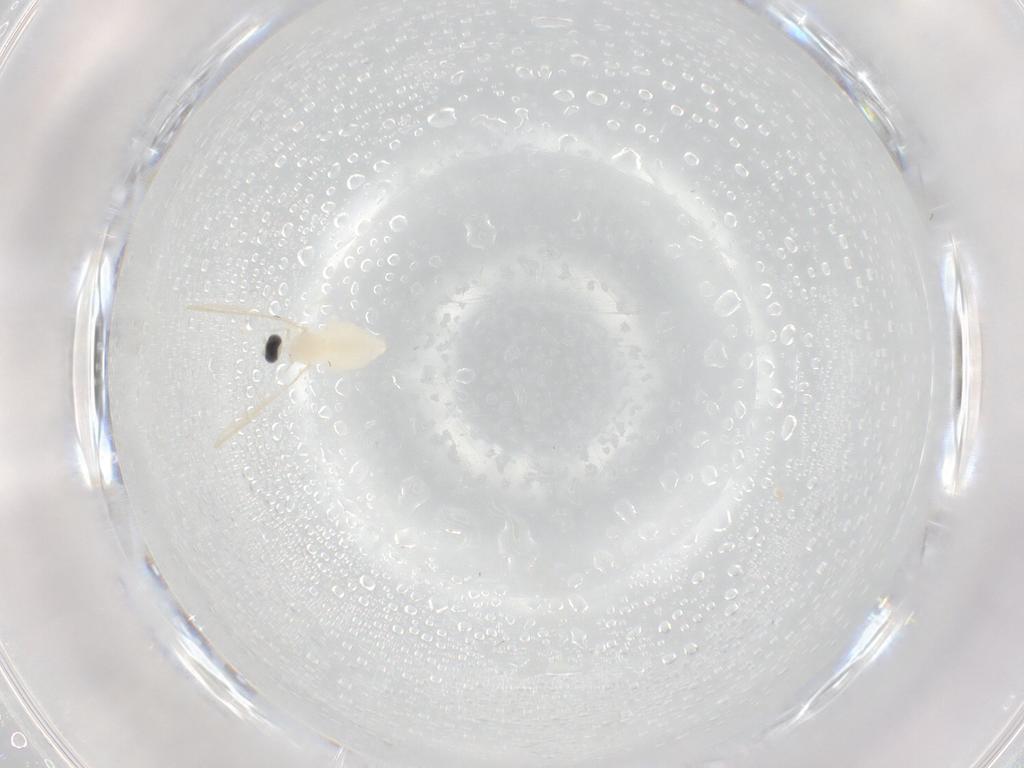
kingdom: Animalia
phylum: Arthropoda
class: Insecta
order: Diptera
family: Cecidomyiidae
